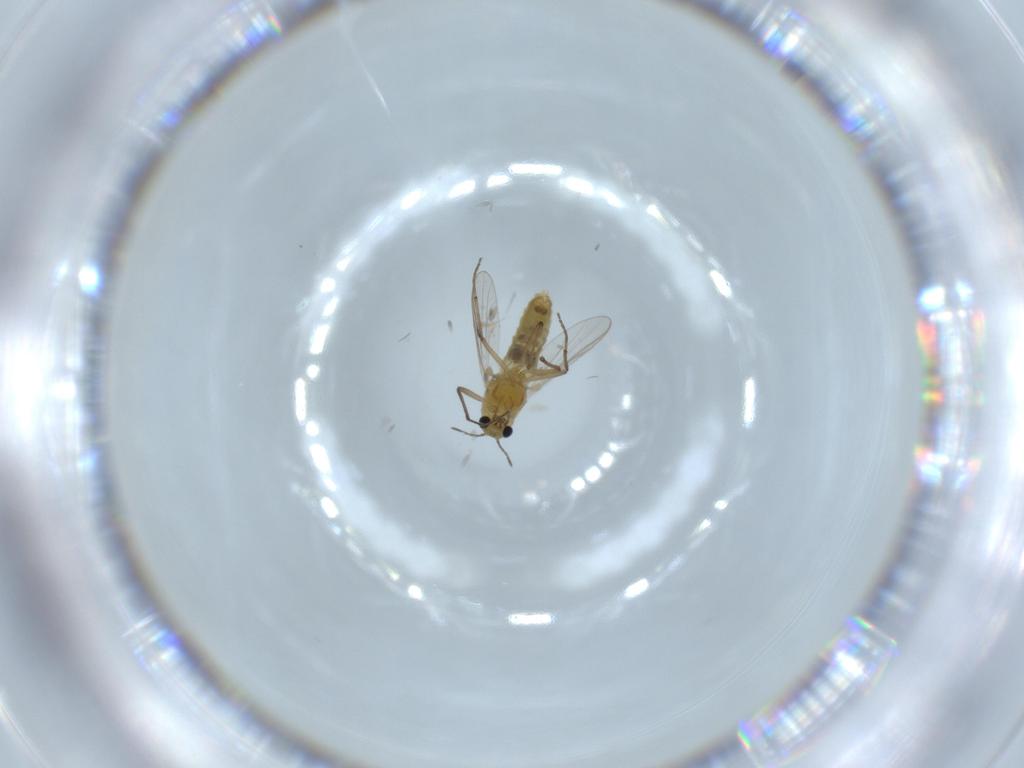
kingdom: Animalia
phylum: Arthropoda
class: Insecta
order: Diptera
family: Chironomidae
